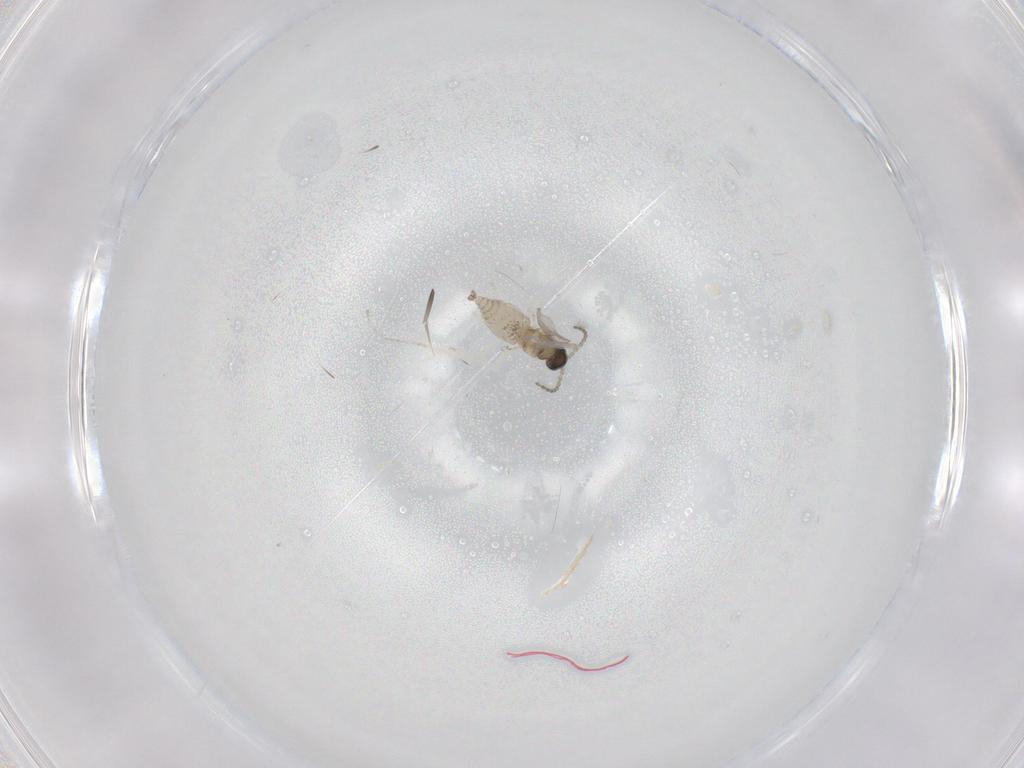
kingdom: Animalia
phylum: Arthropoda
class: Insecta
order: Diptera
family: Cecidomyiidae
